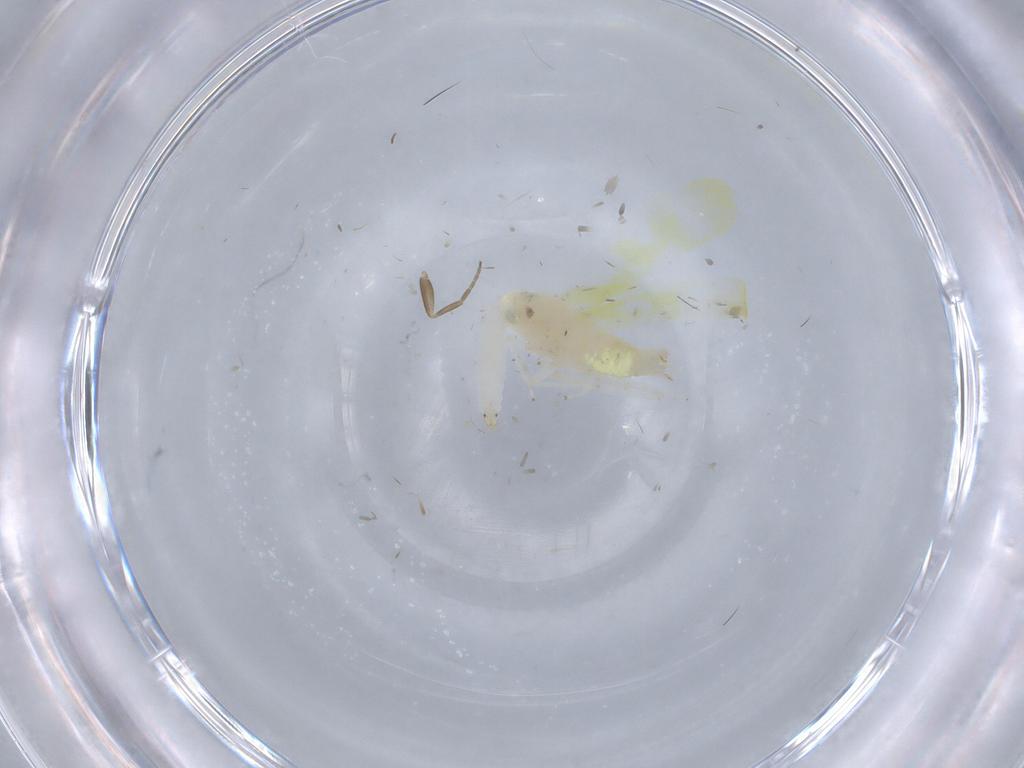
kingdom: Animalia
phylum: Arthropoda
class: Insecta
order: Hemiptera
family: Cicadellidae
